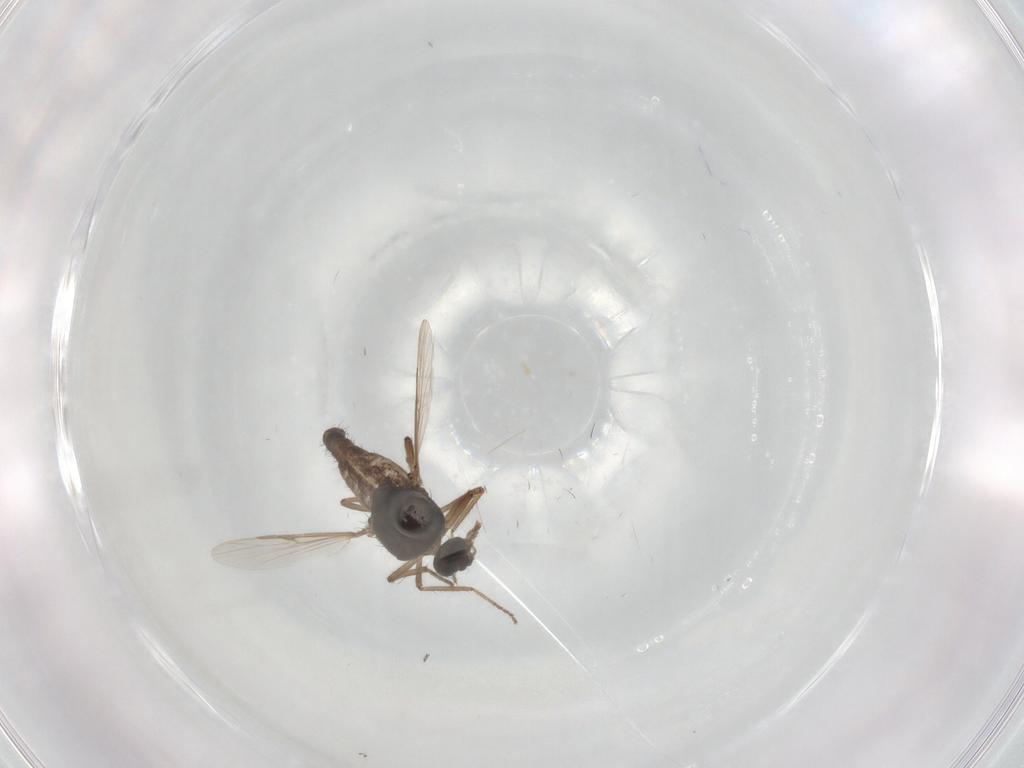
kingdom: Animalia
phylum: Arthropoda
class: Insecta
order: Diptera
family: Ceratopogonidae
